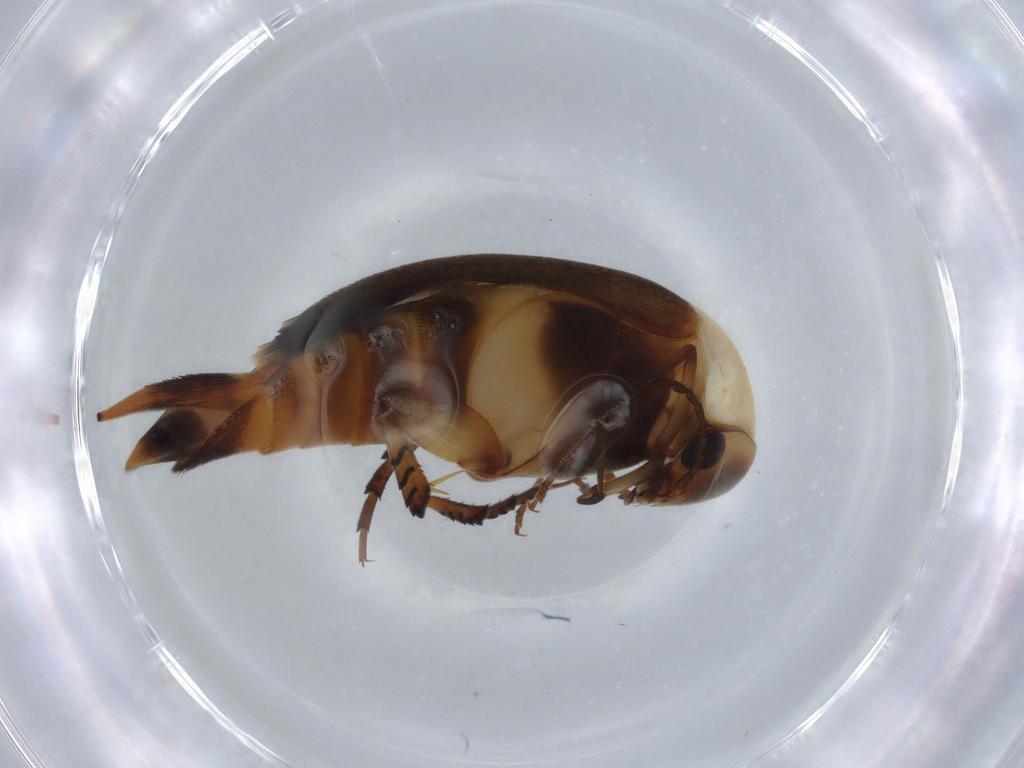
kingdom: Animalia
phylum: Arthropoda
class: Insecta
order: Coleoptera
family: Mordellidae
